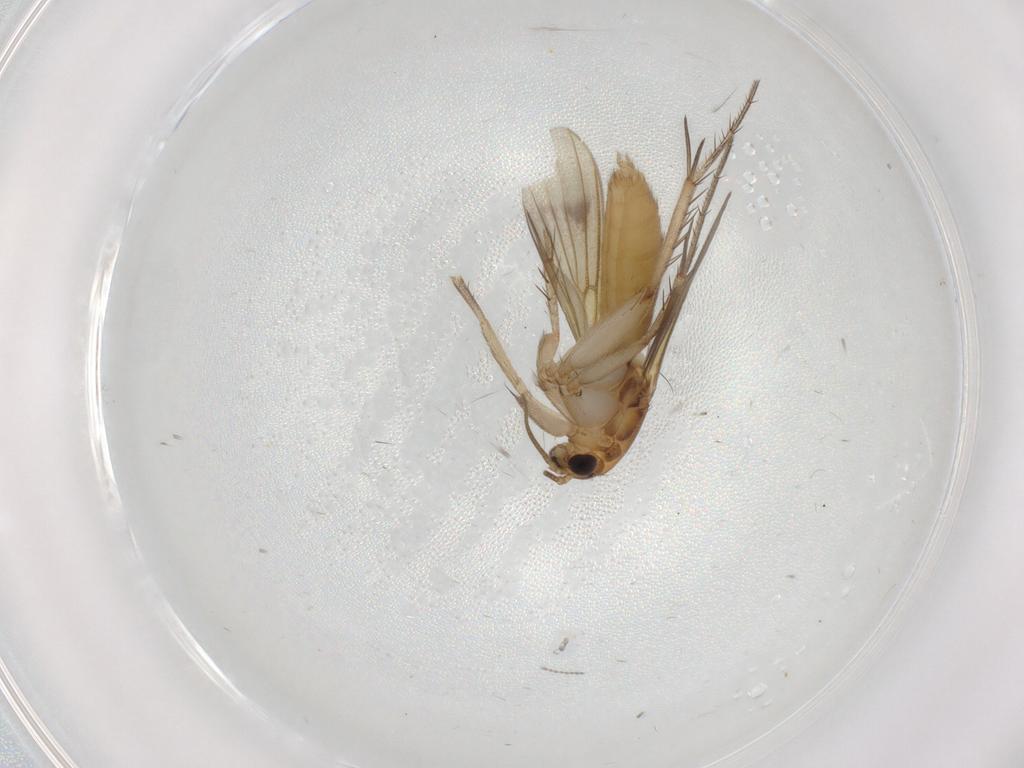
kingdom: Animalia
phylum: Arthropoda
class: Insecta
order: Diptera
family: Mycetophilidae
